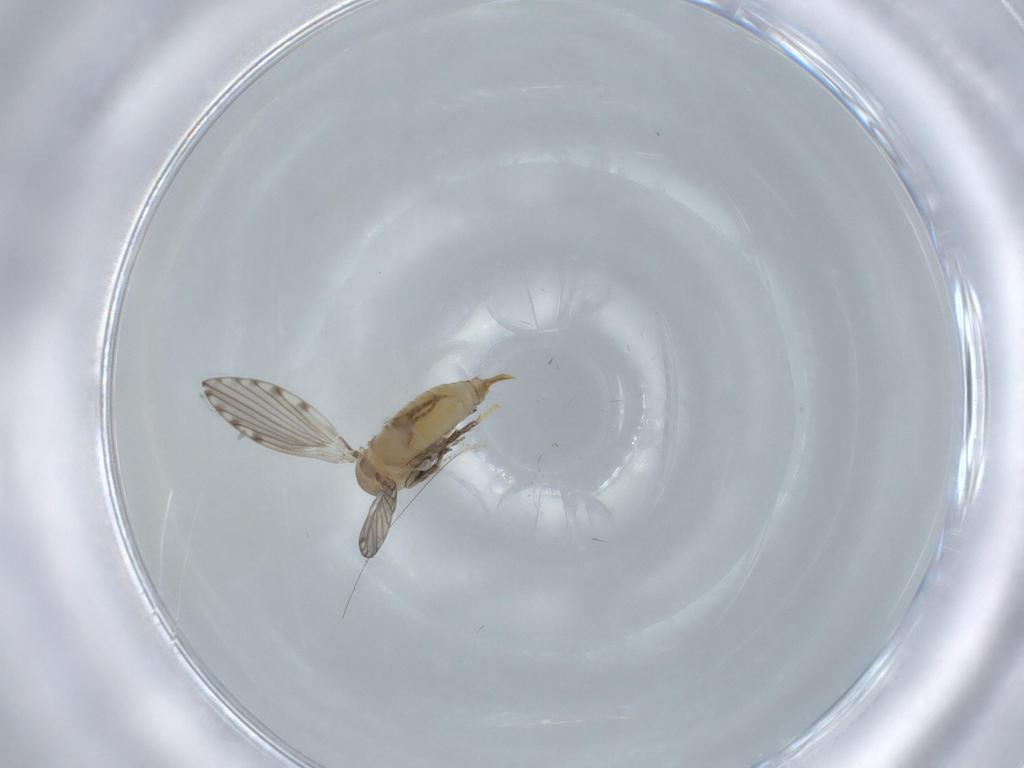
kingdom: Animalia
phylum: Arthropoda
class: Insecta
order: Diptera
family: Psychodidae
